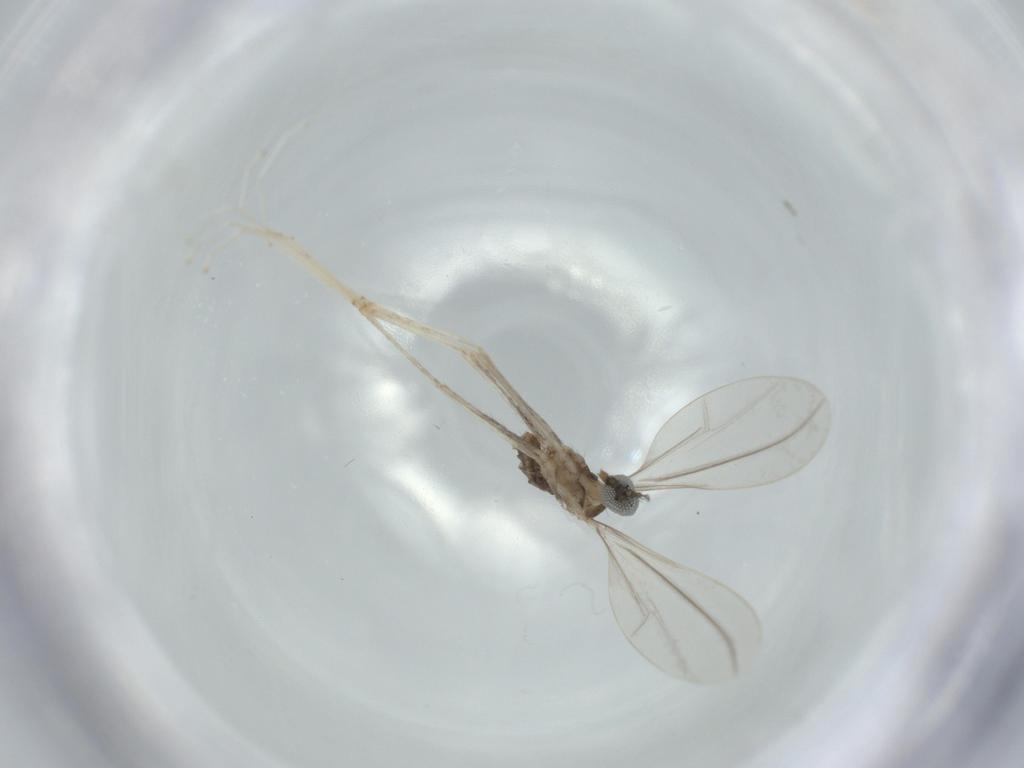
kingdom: Animalia
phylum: Arthropoda
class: Insecta
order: Diptera
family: Cecidomyiidae
